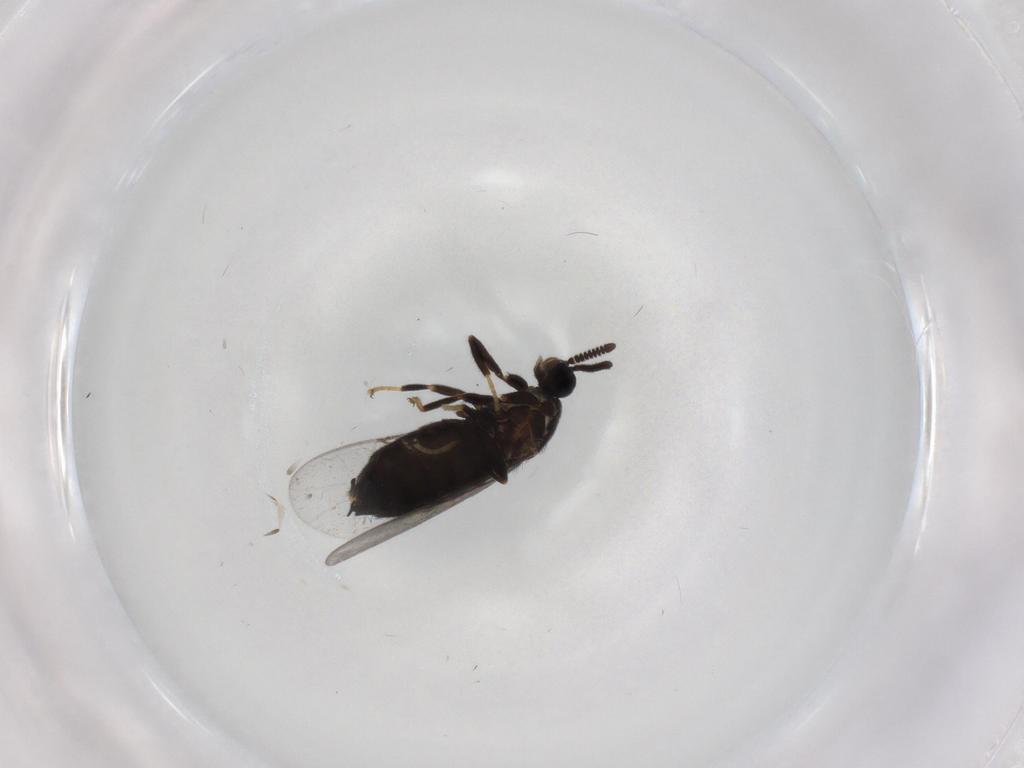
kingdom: Animalia
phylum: Arthropoda
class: Insecta
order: Diptera
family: Scatopsidae
